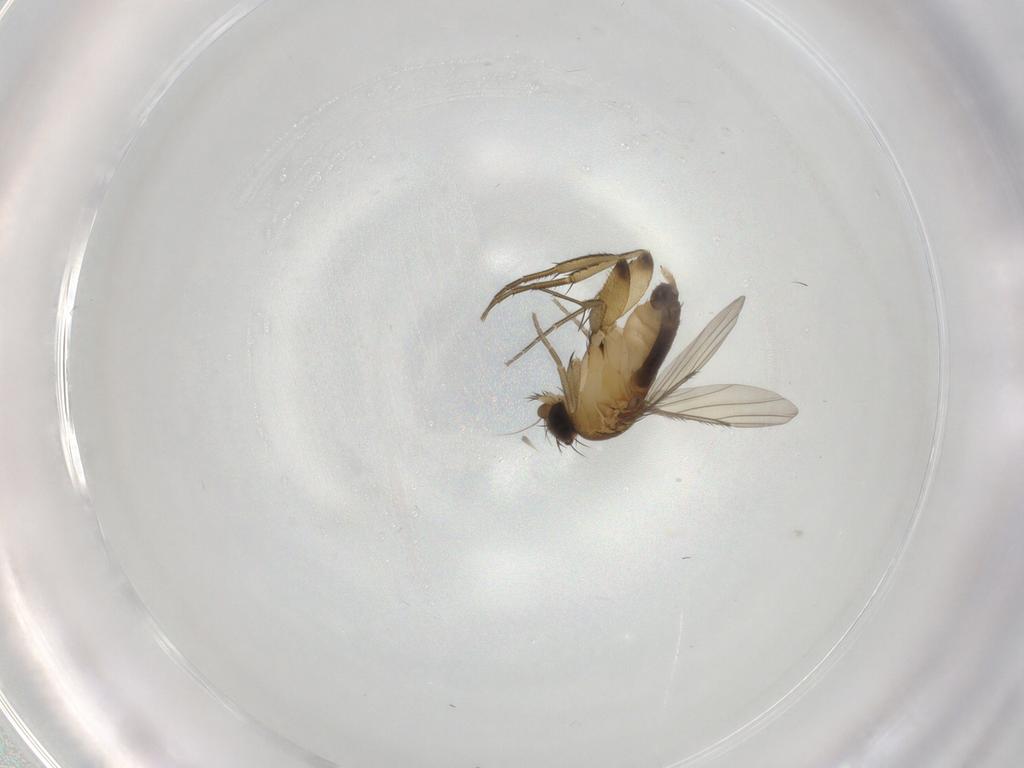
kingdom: Animalia
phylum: Arthropoda
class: Insecta
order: Diptera
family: Phoridae
